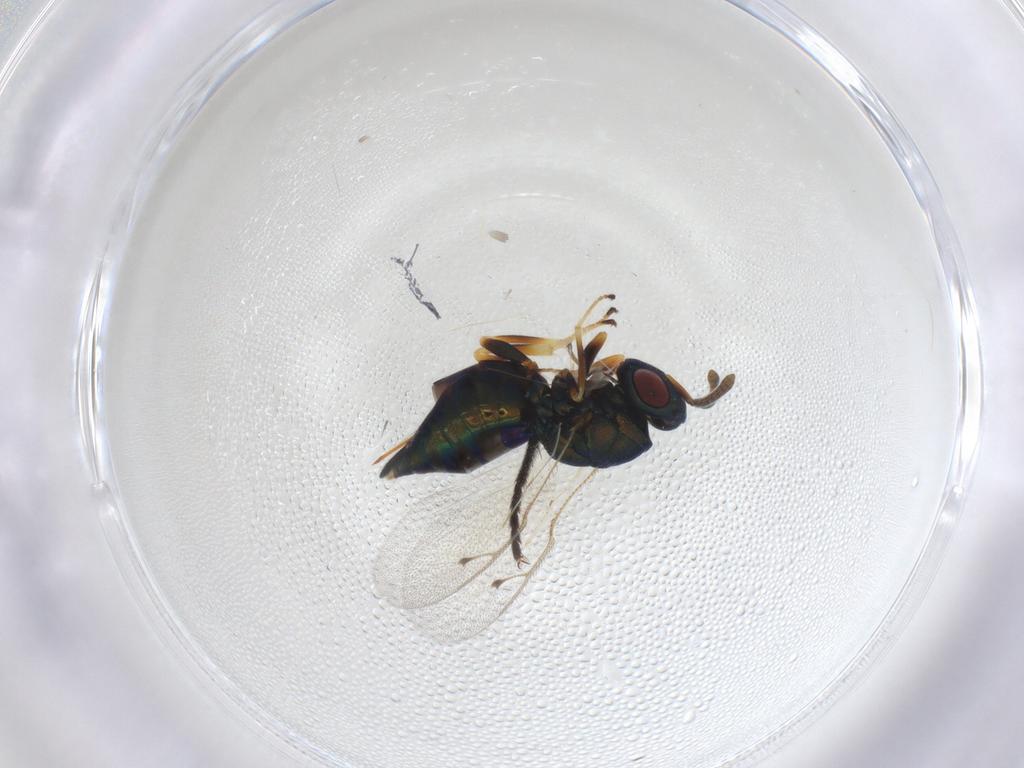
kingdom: Animalia
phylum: Arthropoda
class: Insecta
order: Hymenoptera
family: Pteromalidae
